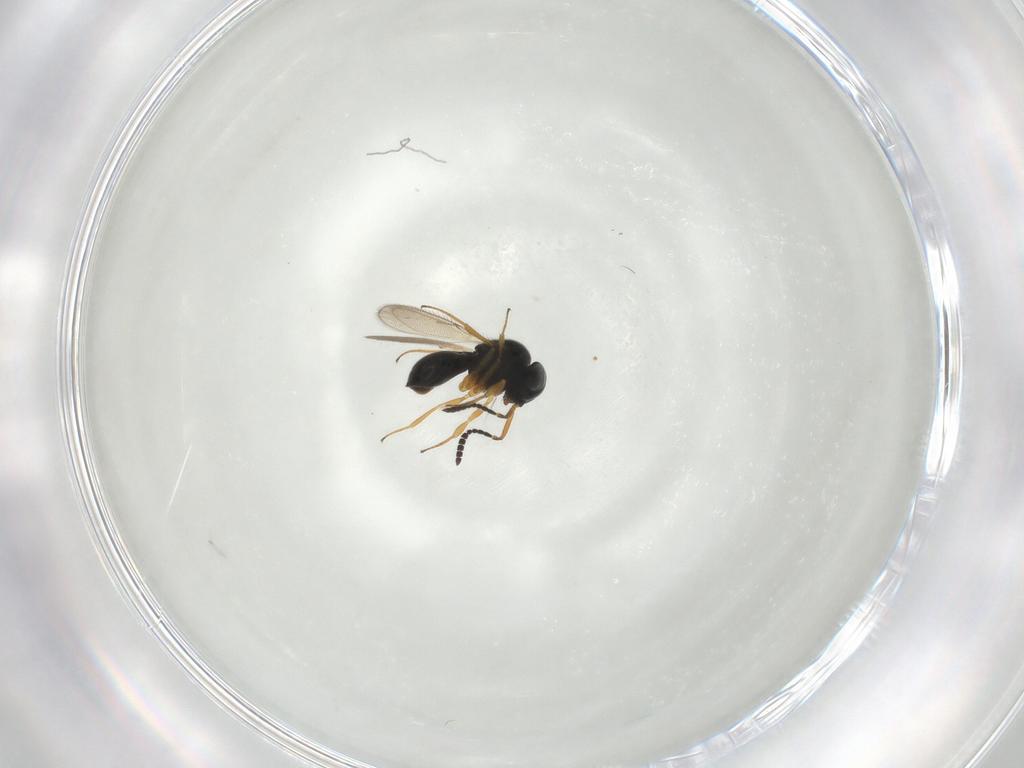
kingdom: Animalia
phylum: Arthropoda
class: Insecta
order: Hymenoptera
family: Scelionidae
